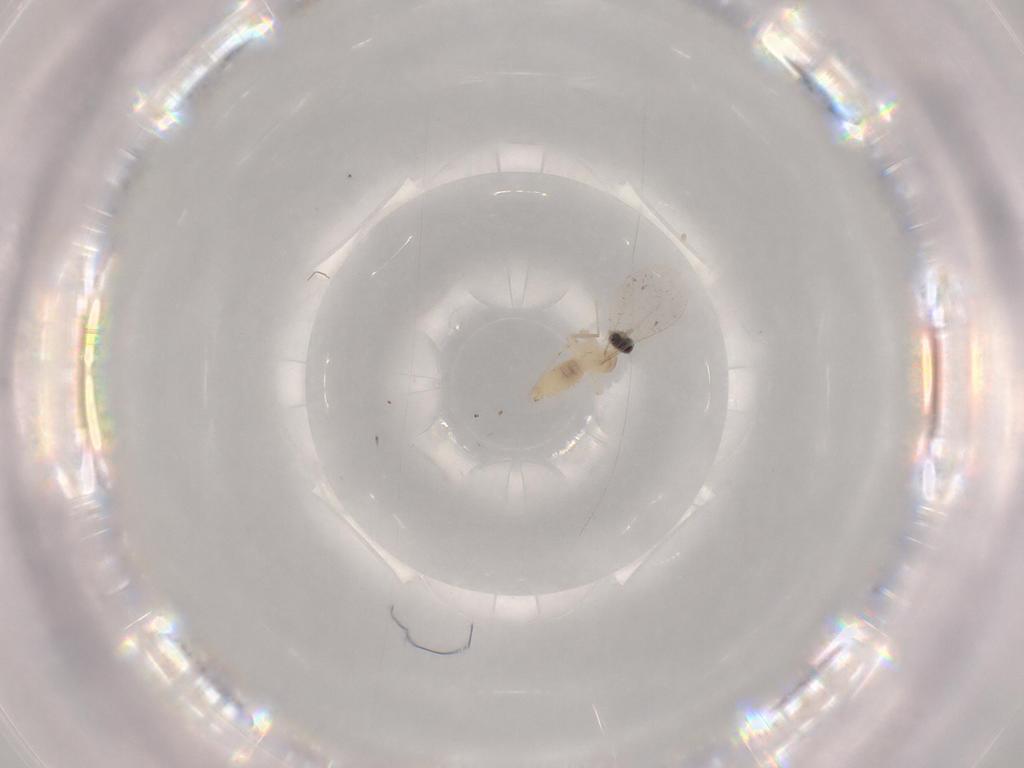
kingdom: Animalia
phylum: Arthropoda
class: Insecta
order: Diptera
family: Cecidomyiidae
